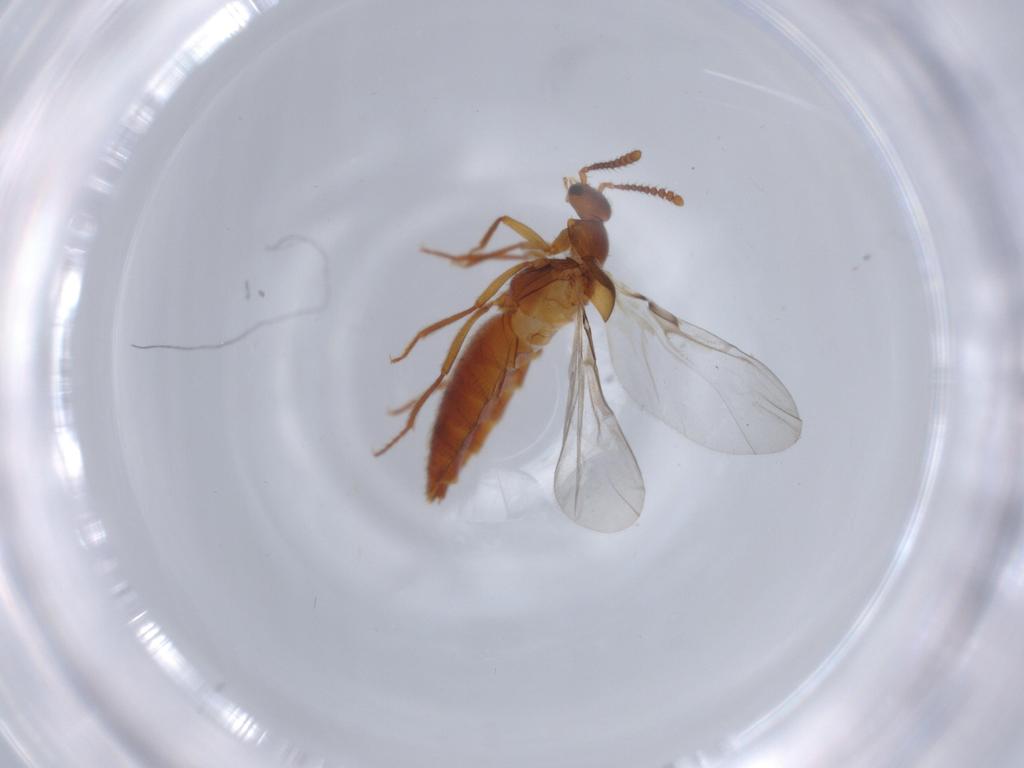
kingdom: Animalia
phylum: Arthropoda
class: Insecta
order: Coleoptera
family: Staphylinidae
